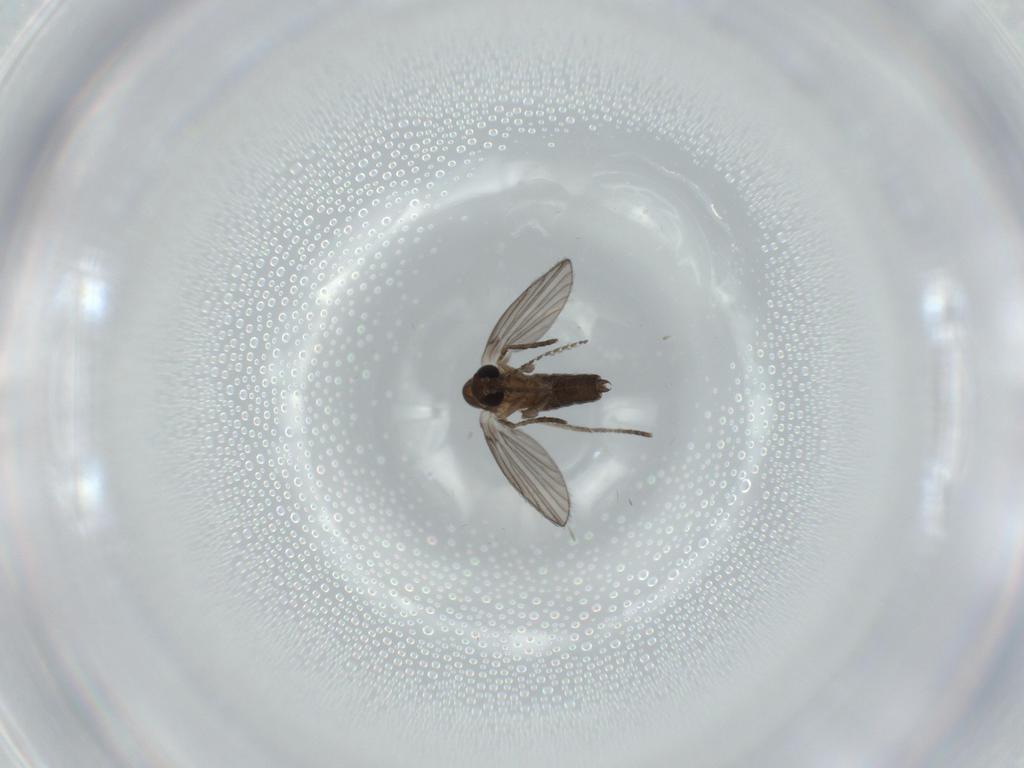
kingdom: Animalia
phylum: Arthropoda
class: Insecta
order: Diptera
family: Psychodidae
